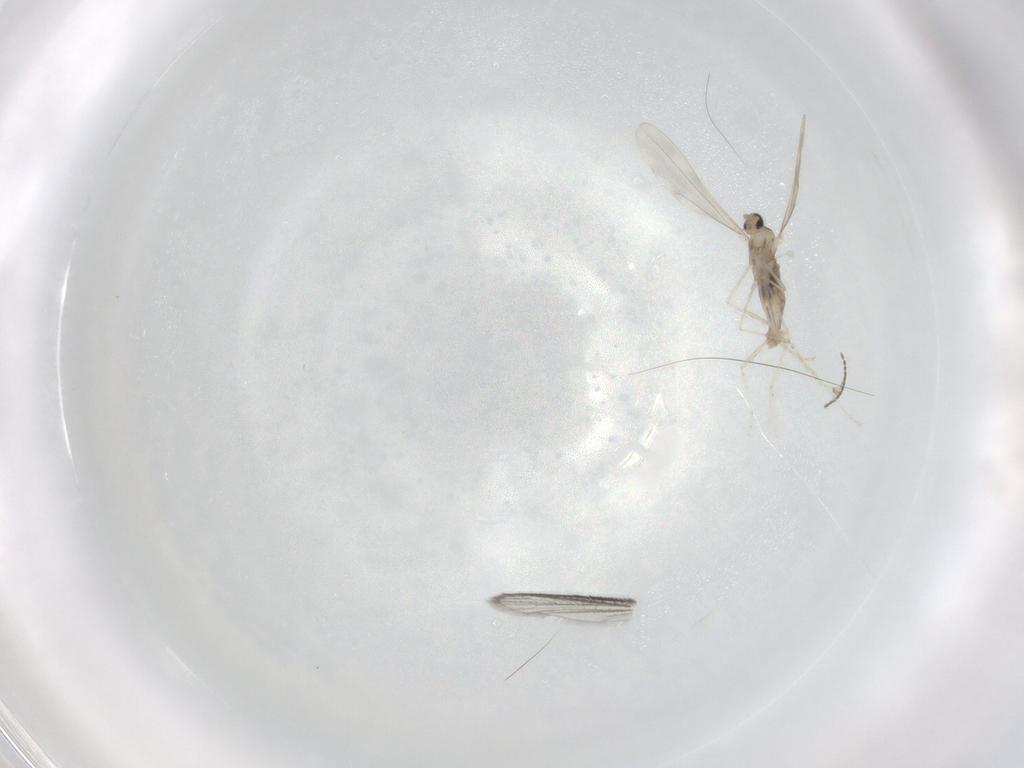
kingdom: Animalia
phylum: Arthropoda
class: Insecta
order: Diptera
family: Cecidomyiidae
